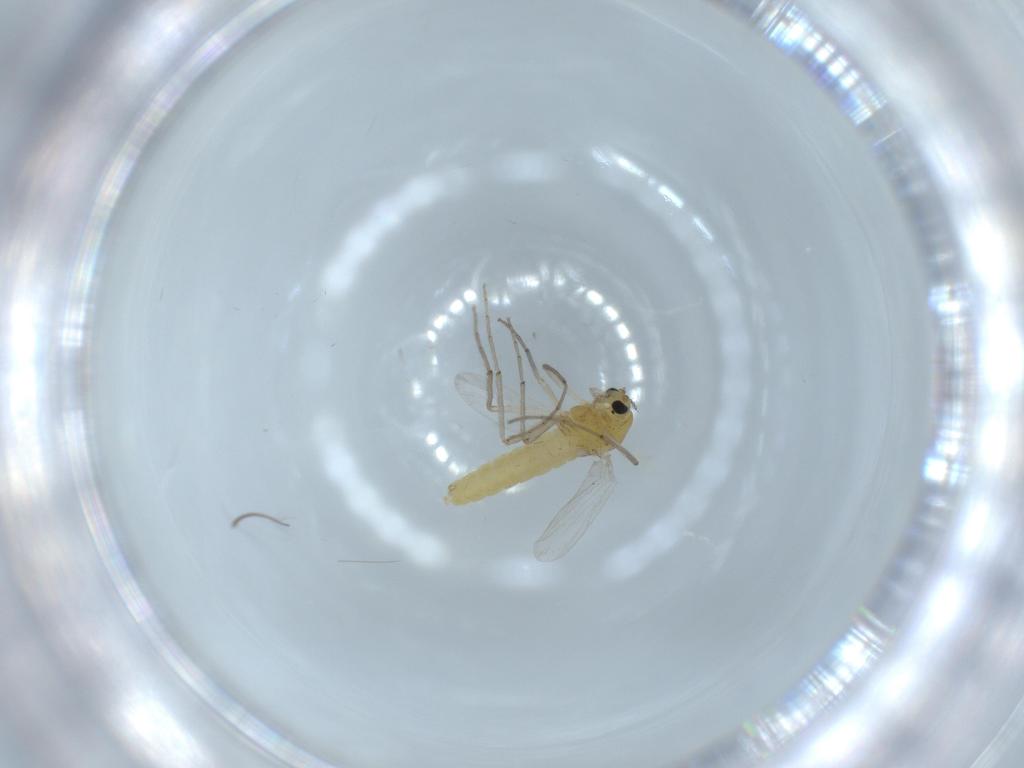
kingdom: Animalia
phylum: Arthropoda
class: Insecta
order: Diptera
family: Chironomidae
